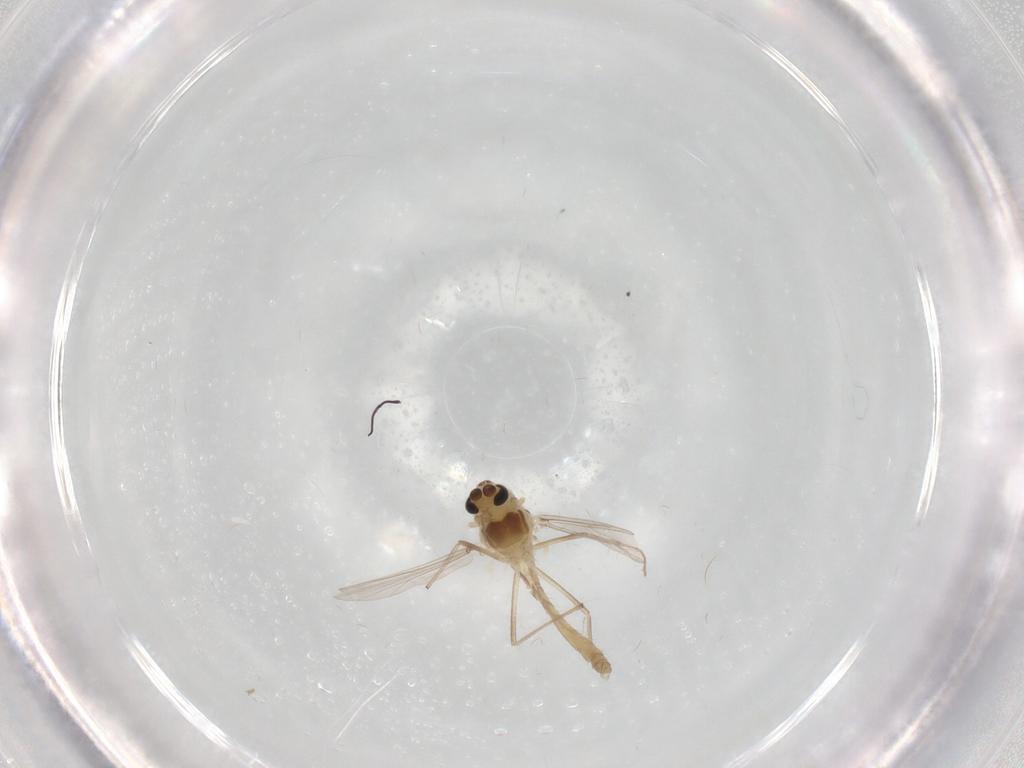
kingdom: Animalia
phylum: Arthropoda
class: Insecta
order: Diptera
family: Chironomidae
